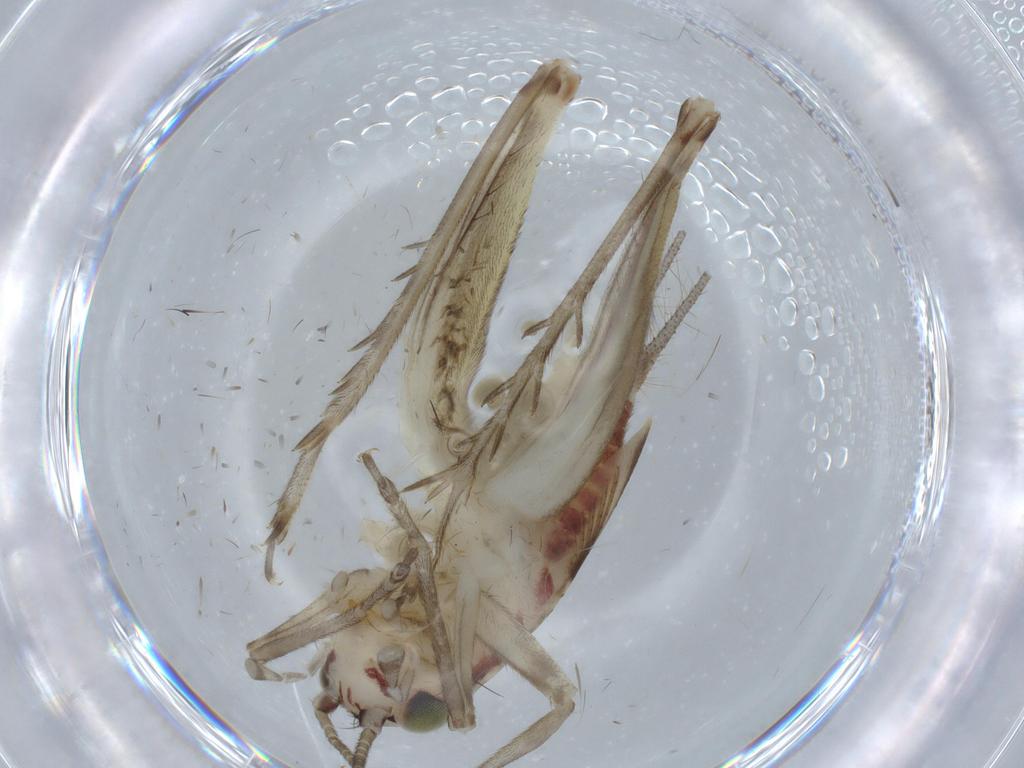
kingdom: Animalia
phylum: Arthropoda
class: Insecta
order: Orthoptera
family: Trigonidiidae
